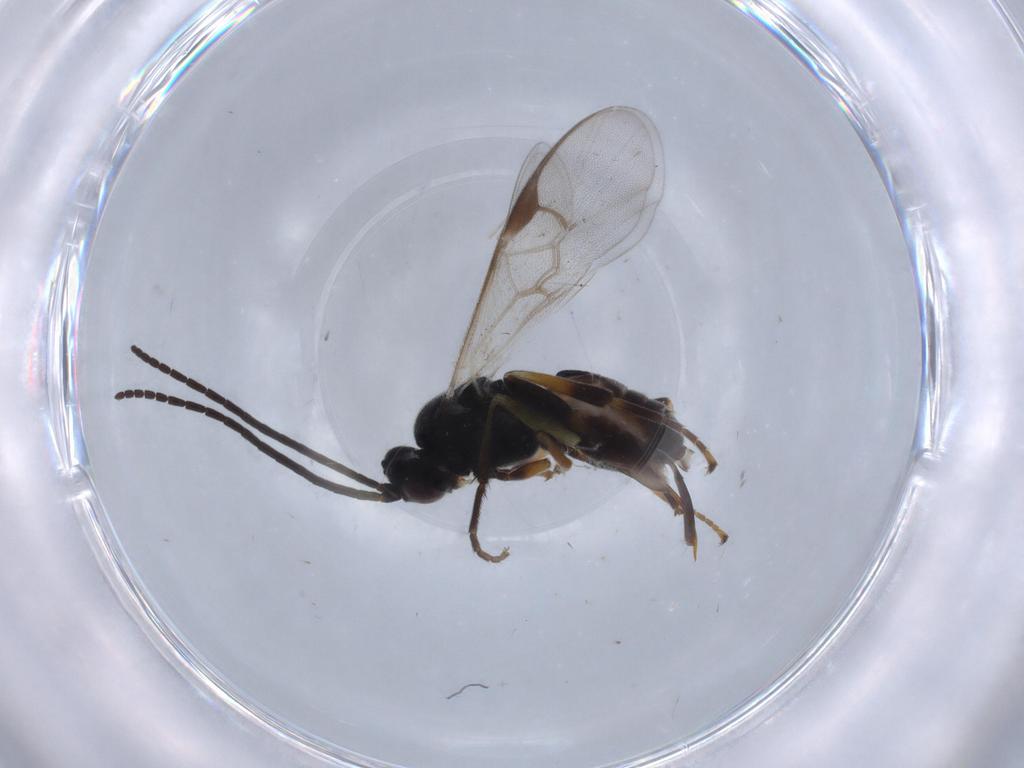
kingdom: Animalia
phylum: Arthropoda
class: Insecta
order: Hymenoptera
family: Braconidae
